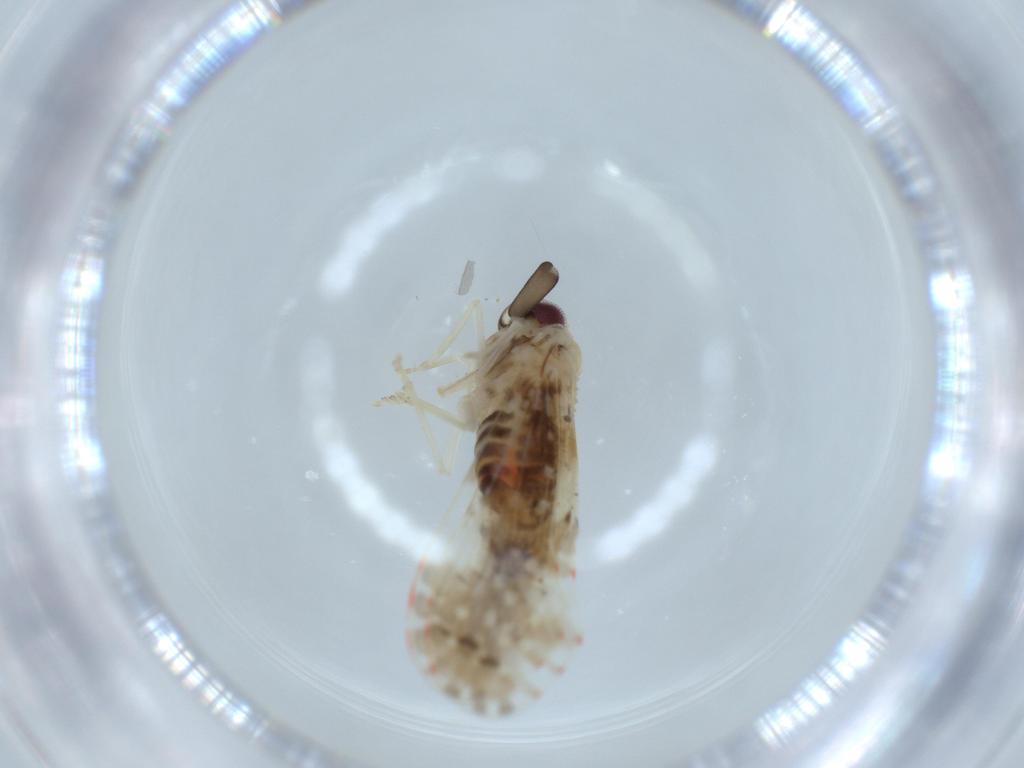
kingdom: Animalia
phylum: Arthropoda
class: Insecta
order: Hemiptera
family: Derbidae
